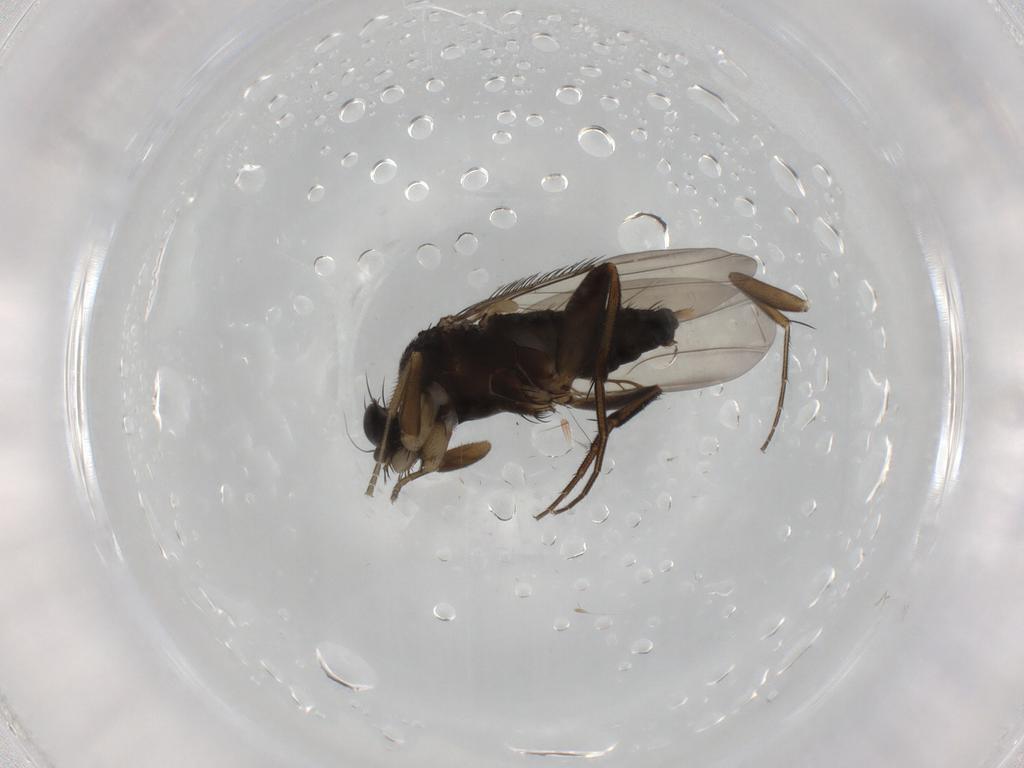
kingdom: Animalia
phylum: Arthropoda
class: Insecta
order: Diptera
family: Phoridae
